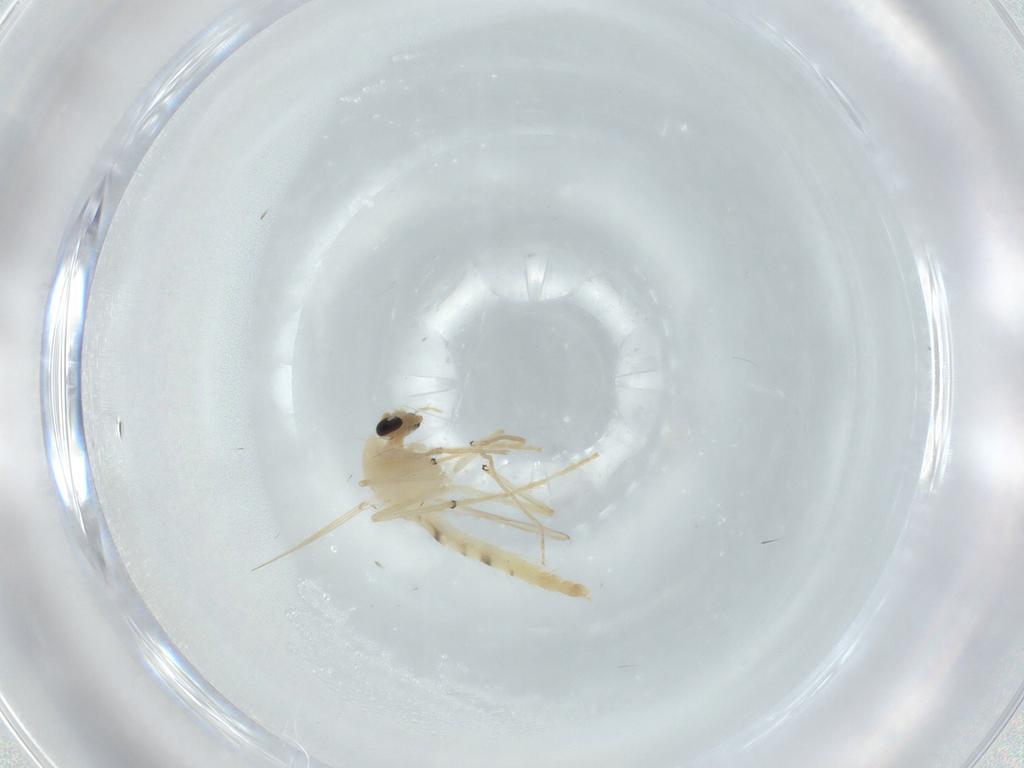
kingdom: Animalia
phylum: Arthropoda
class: Insecta
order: Diptera
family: Chironomidae
